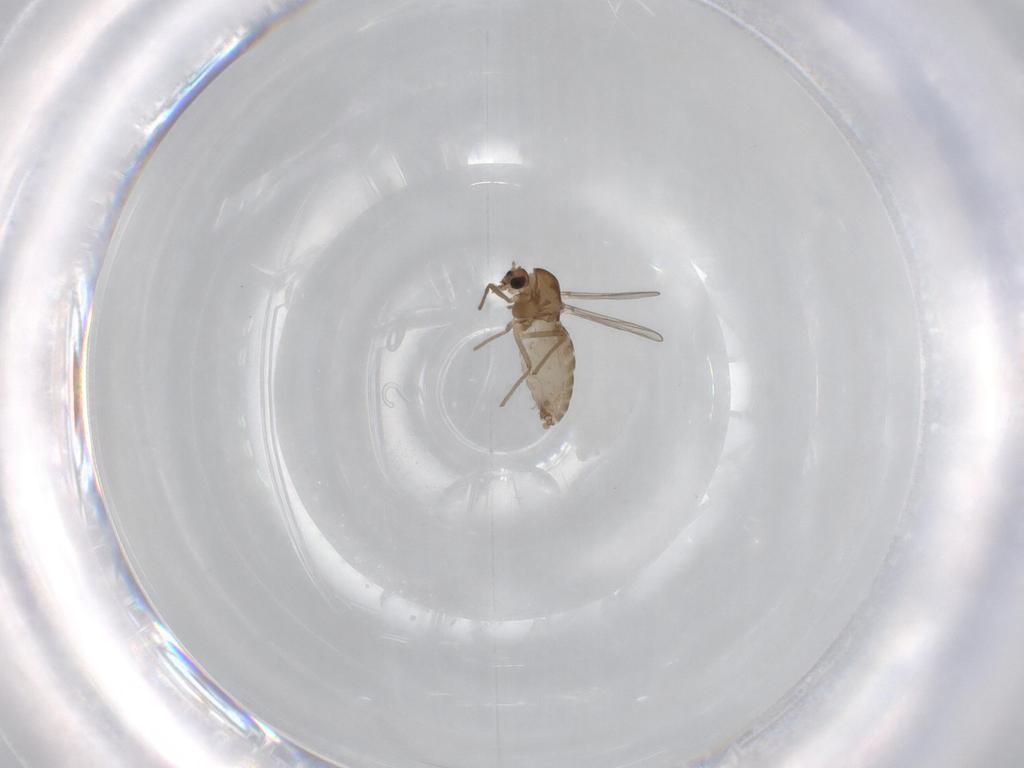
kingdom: Animalia
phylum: Arthropoda
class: Insecta
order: Diptera
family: Chironomidae
